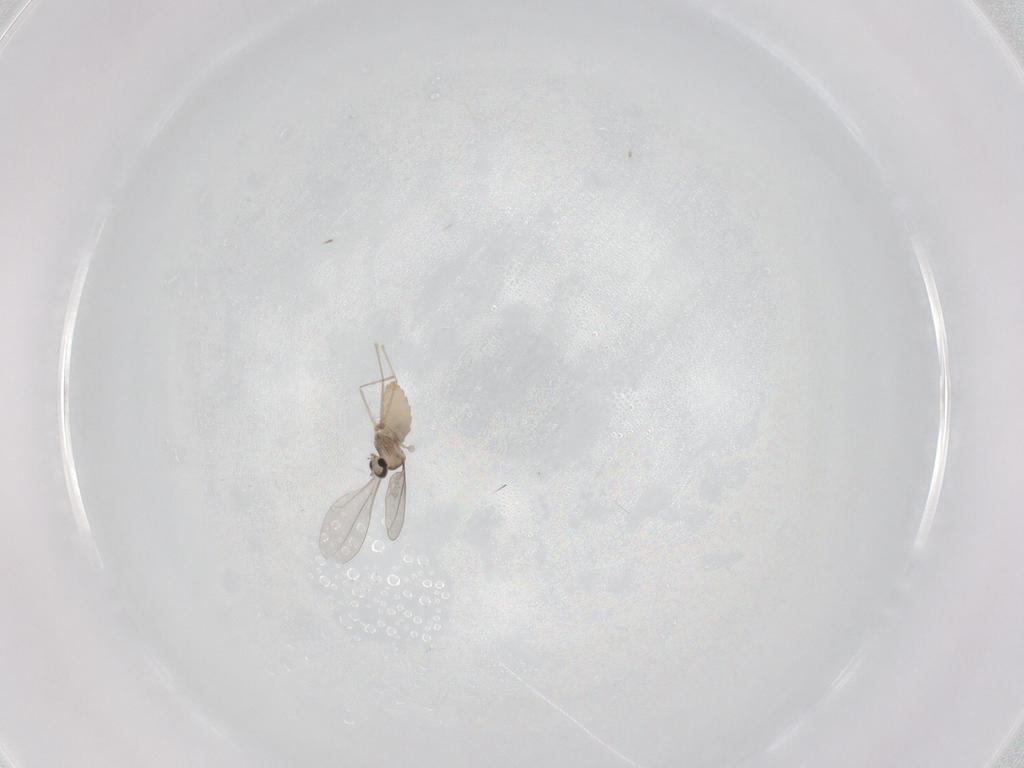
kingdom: Animalia
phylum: Arthropoda
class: Insecta
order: Diptera
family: Cecidomyiidae
